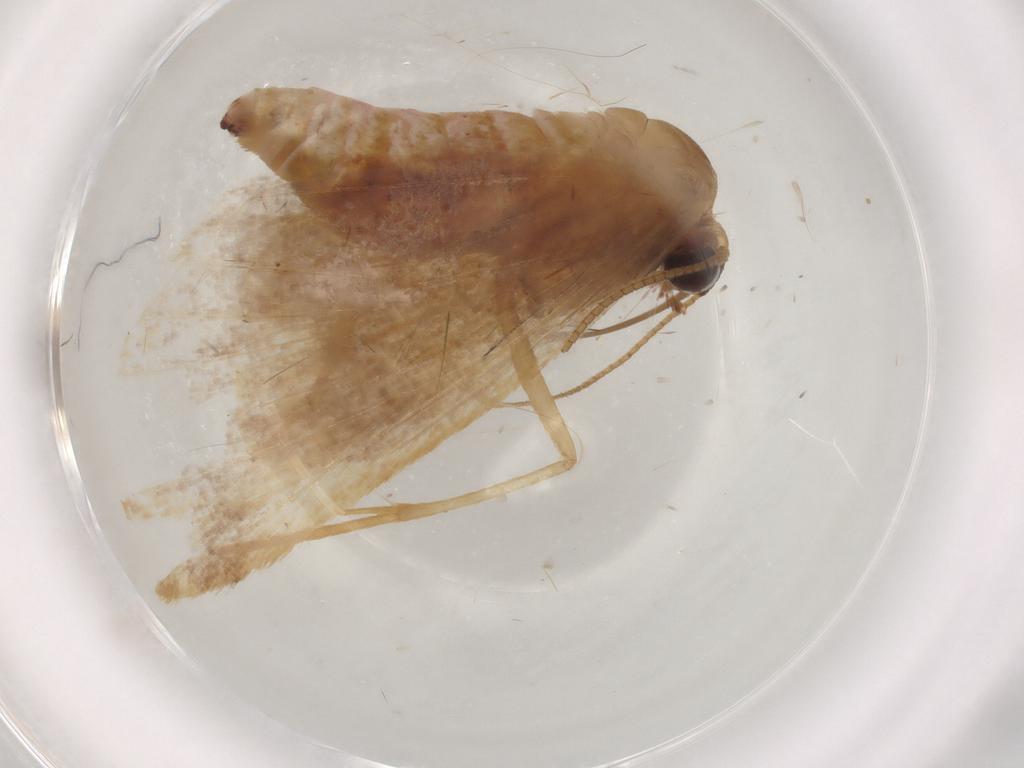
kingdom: Animalia
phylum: Arthropoda
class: Insecta
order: Lepidoptera
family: Geometridae
